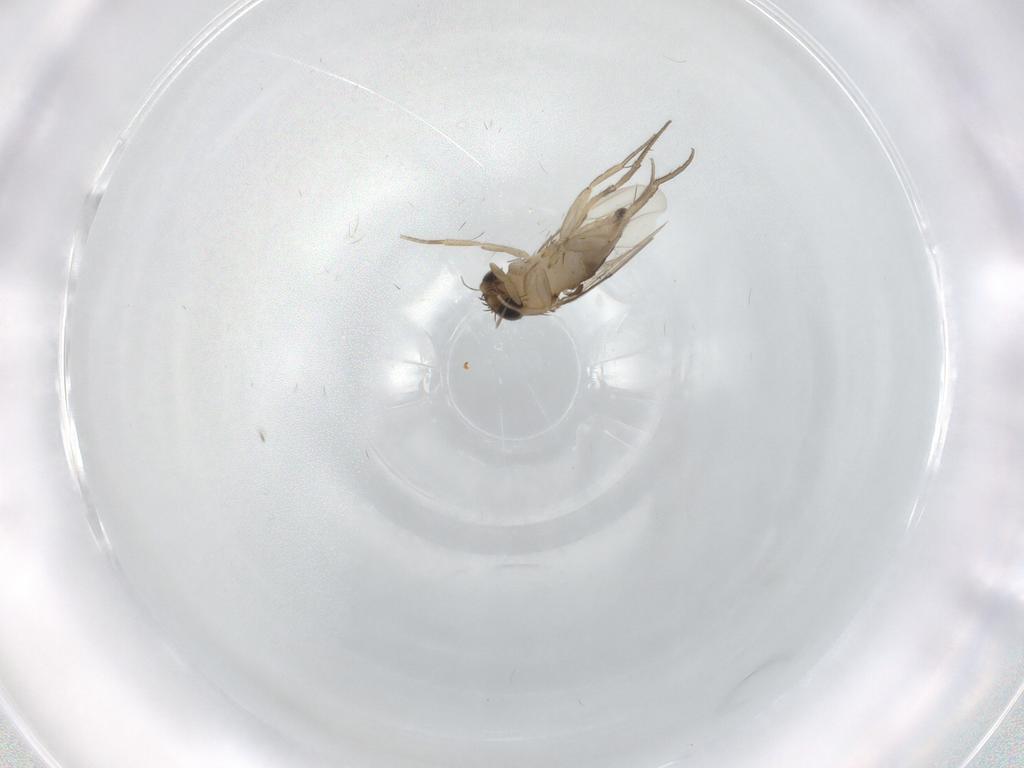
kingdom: Animalia
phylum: Arthropoda
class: Insecta
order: Diptera
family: Phoridae
